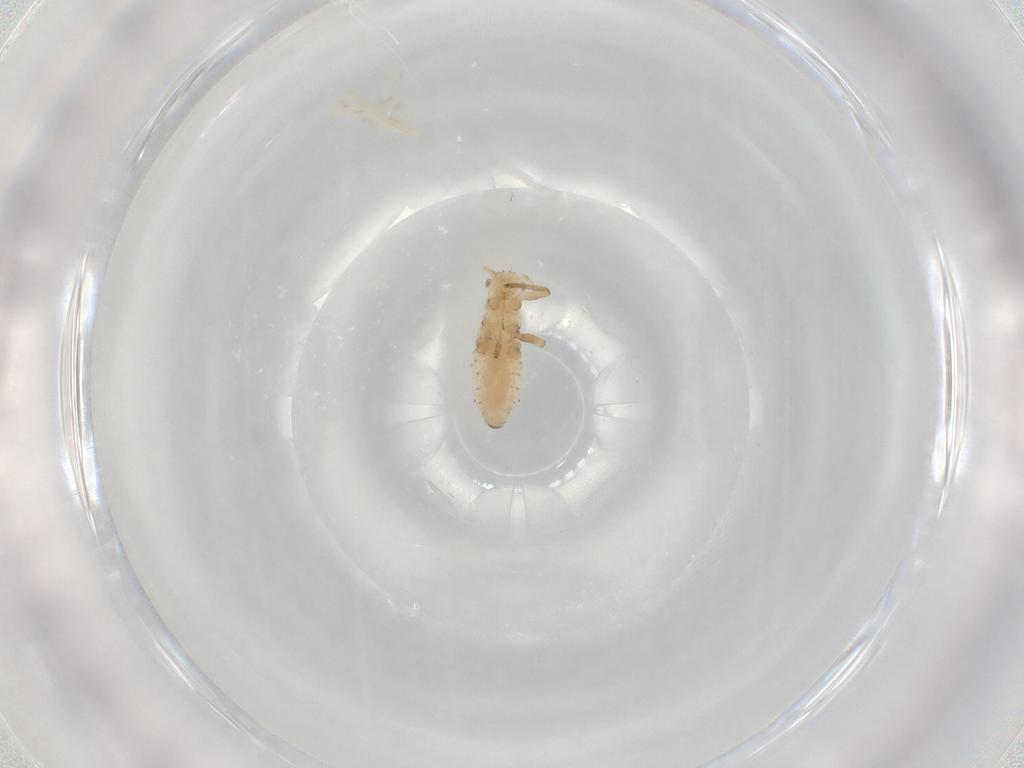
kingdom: Animalia
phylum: Arthropoda
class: Insecta
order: Hemiptera
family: Aphididae
